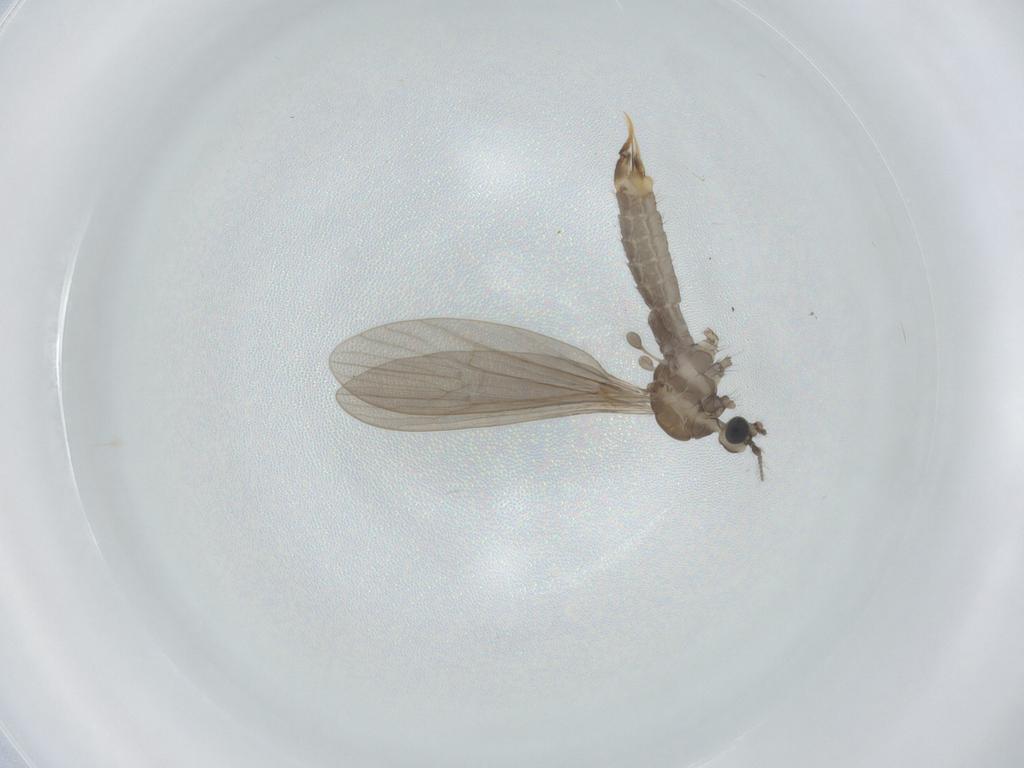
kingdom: Animalia
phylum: Arthropoda
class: Insecta
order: Diptera
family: Limoniidae
